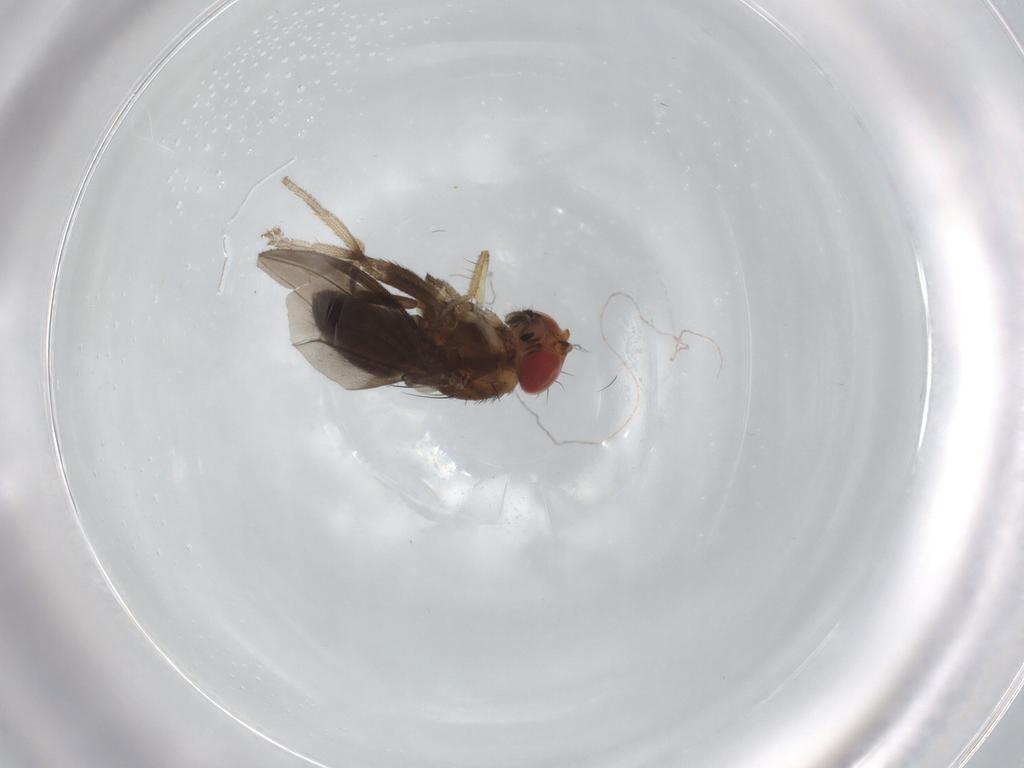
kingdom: Animalia
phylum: Arthropoda
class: Insecta
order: Diptera
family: Drosophilidae
